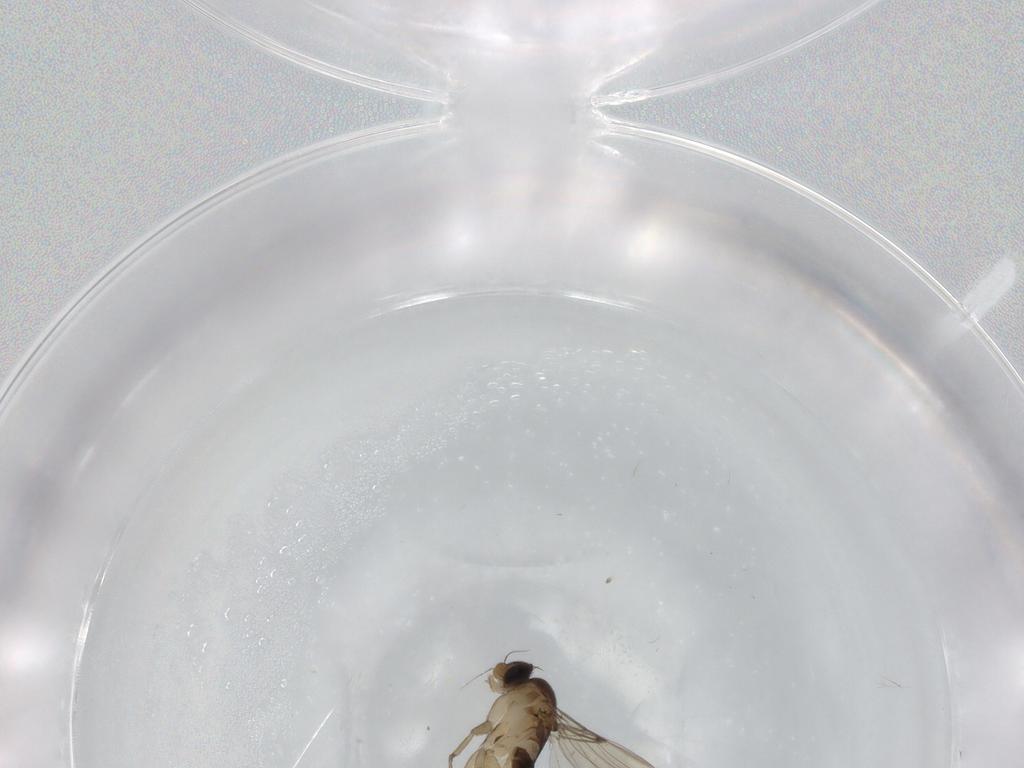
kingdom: Animalia
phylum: Arthropoda
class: Insecta
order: Diptera
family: Phoridae
